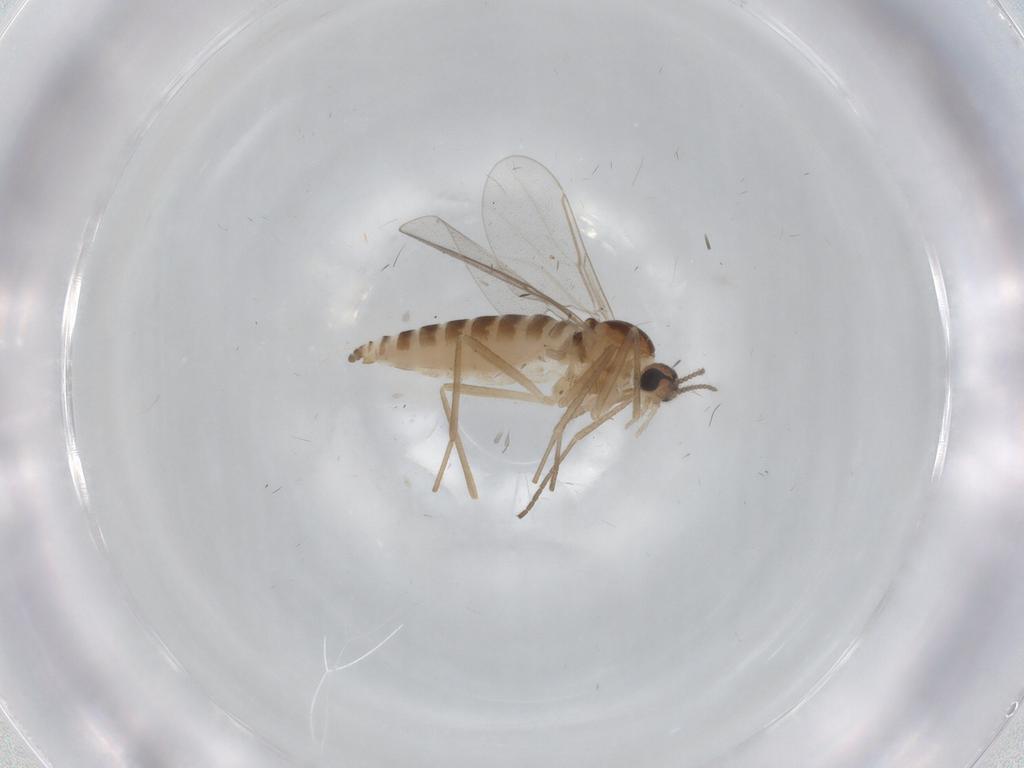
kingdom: Animalia
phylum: Arthropoda
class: Insecta
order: Diptera
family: Cecidomyiidae
